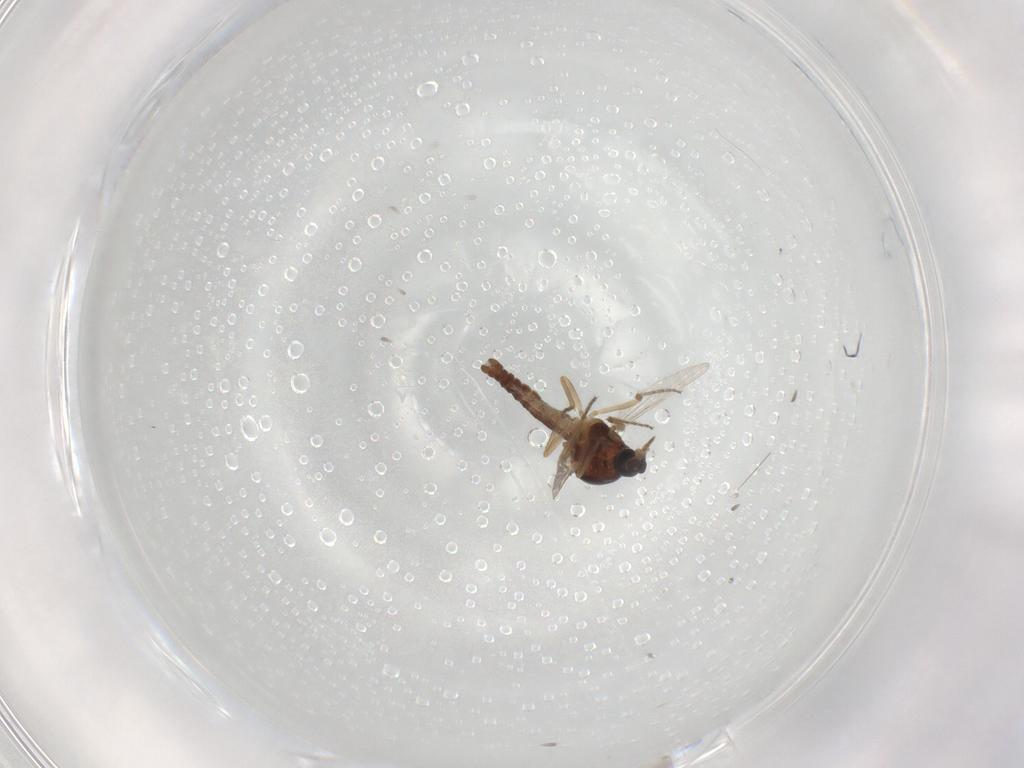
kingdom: Animalia
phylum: Arthropoda
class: Insecta
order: Diptera
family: Ceratopogonidae
